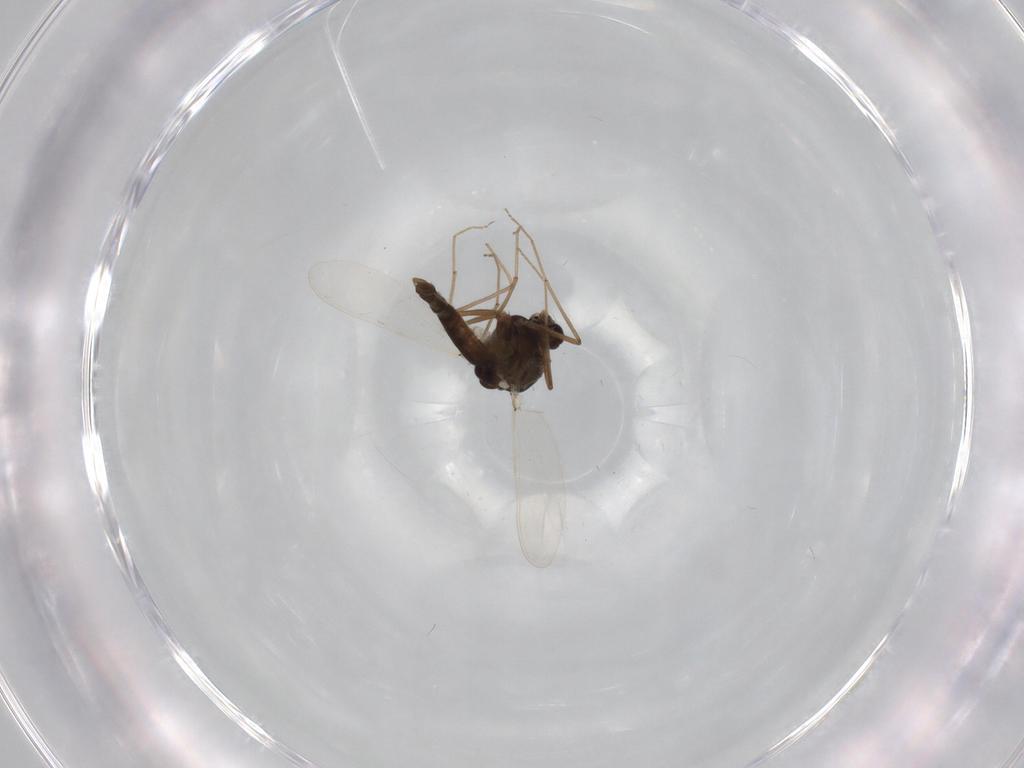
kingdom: Animalia
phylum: Arthropoda
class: Insecta
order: Diptera
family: Chironomidae
